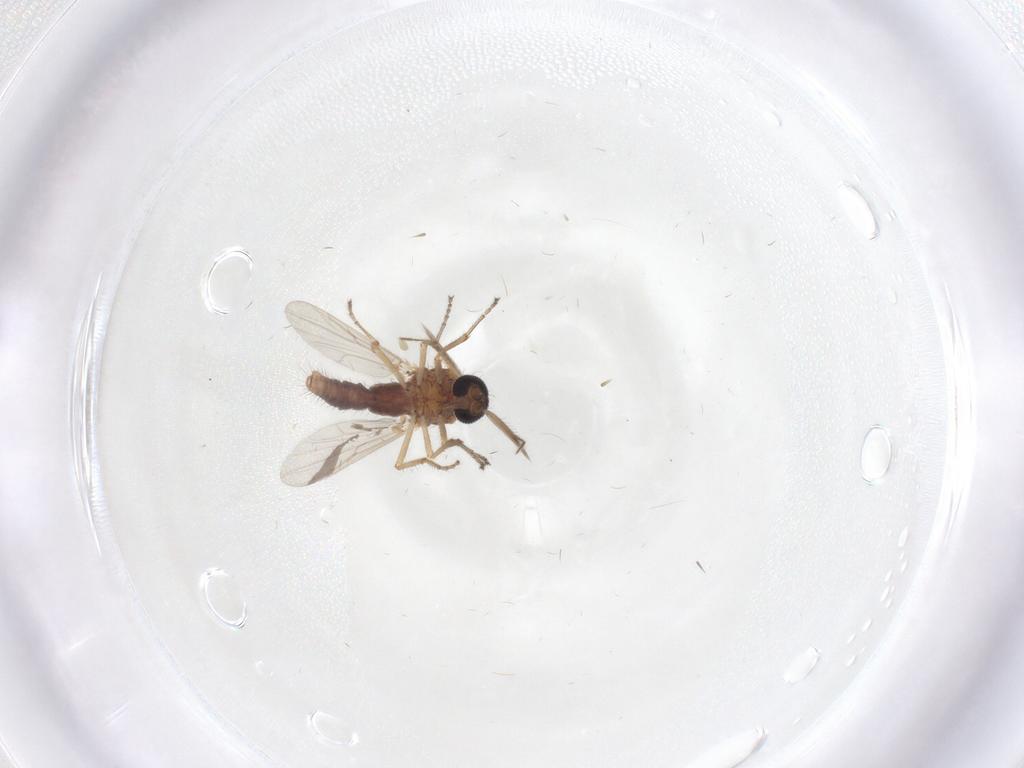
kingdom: Animalia
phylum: Arthropoda
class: Insecta
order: Diptera
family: Ceratopogonidae
